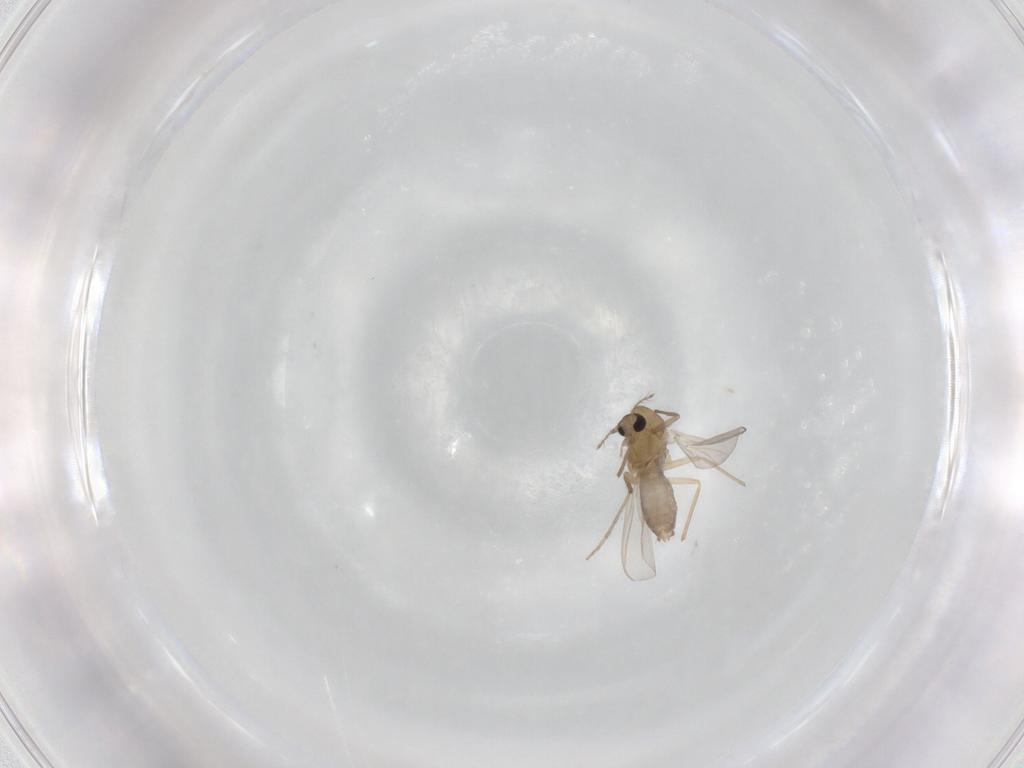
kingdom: Animalia
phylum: Arthropoda
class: Insecta
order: Diptera
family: Chironomidae
